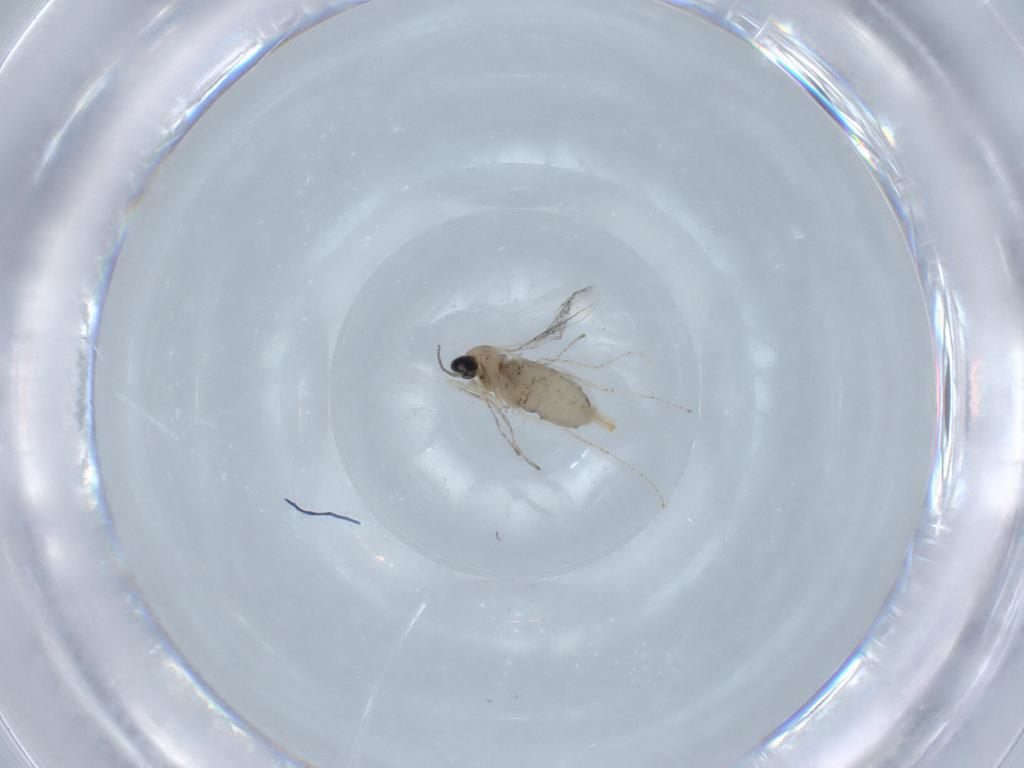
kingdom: Animalia
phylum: Arthropoda
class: Insecta
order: Diptera
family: Cecidomyiidae
